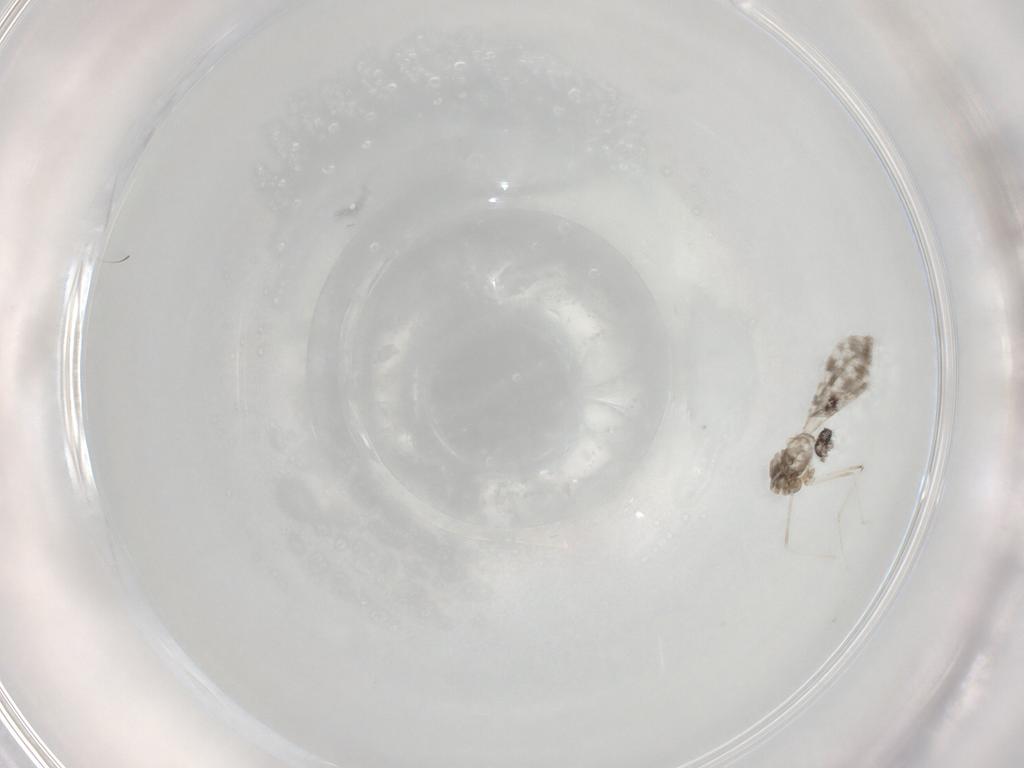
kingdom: Animalia
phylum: Arthropoda
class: Insecta
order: Diptera
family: Cecidomyiidae
